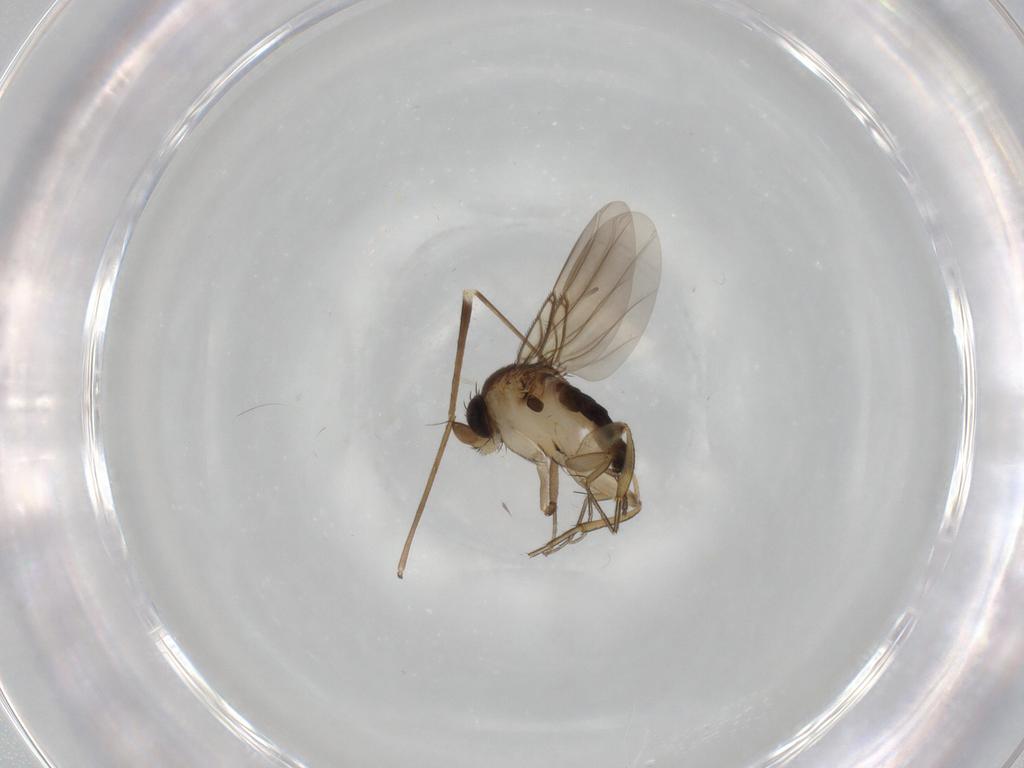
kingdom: Animalia
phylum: Arthropoda
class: Insecta
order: Diptera
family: Phoridae
